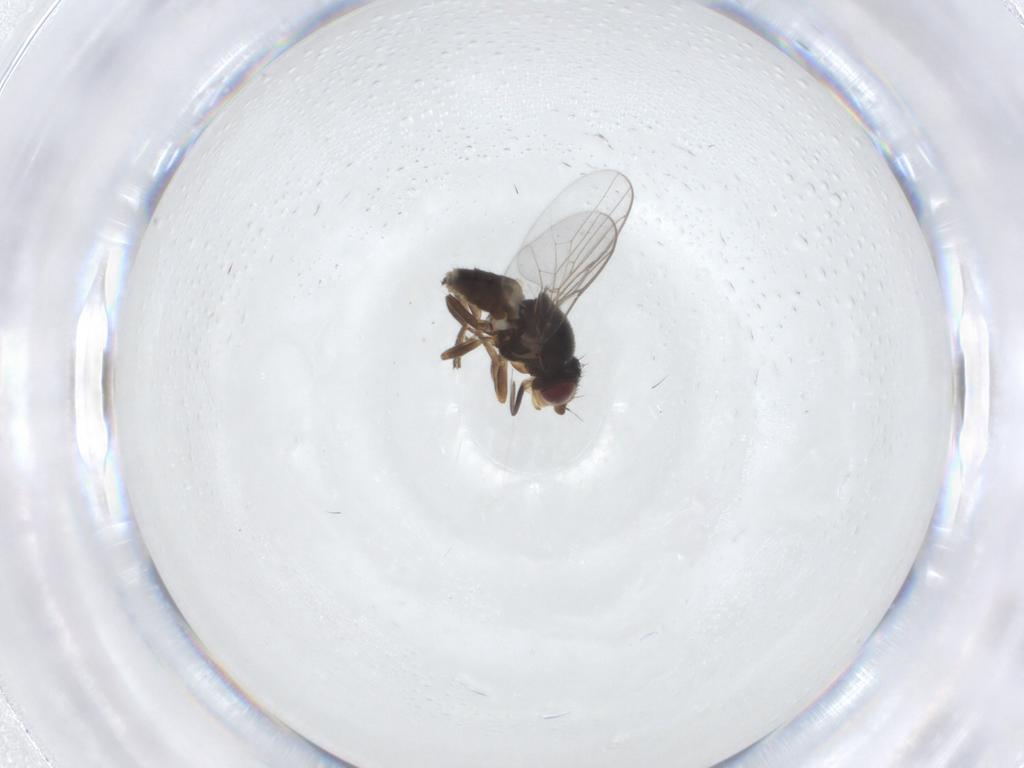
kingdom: Animalia
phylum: Arthropoda
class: Insecta
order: Diptera
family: Chloropidae
